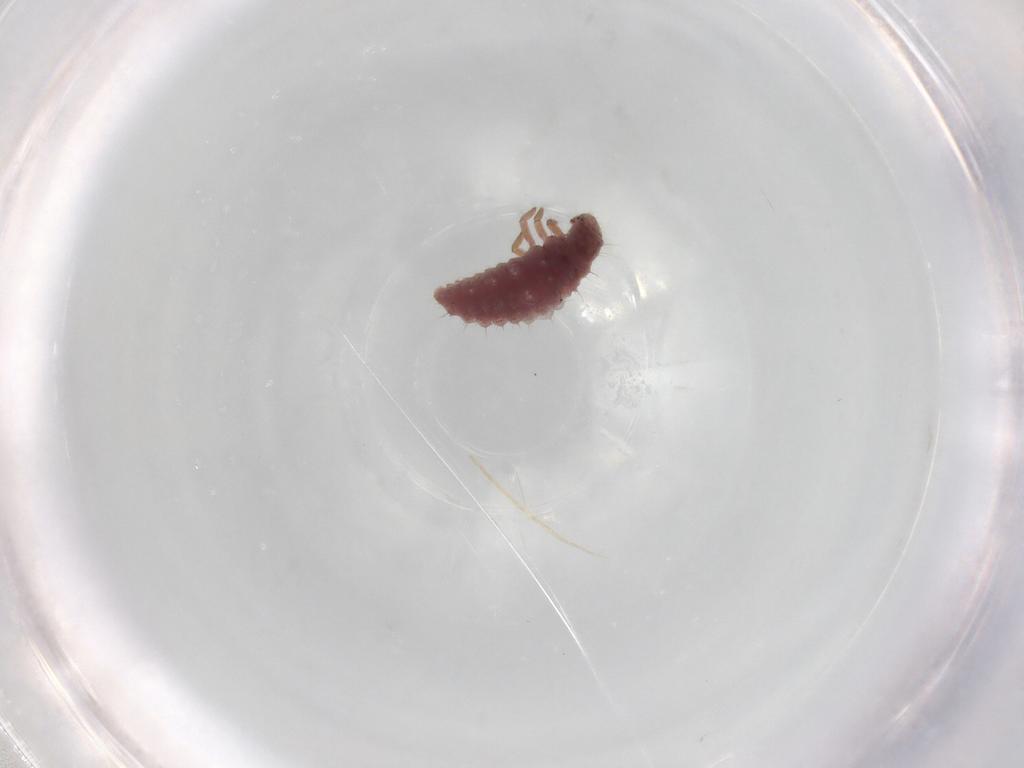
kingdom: Animalia
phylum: Arthropoda
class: Insecta
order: Coleoptera
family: Coccinellidae
